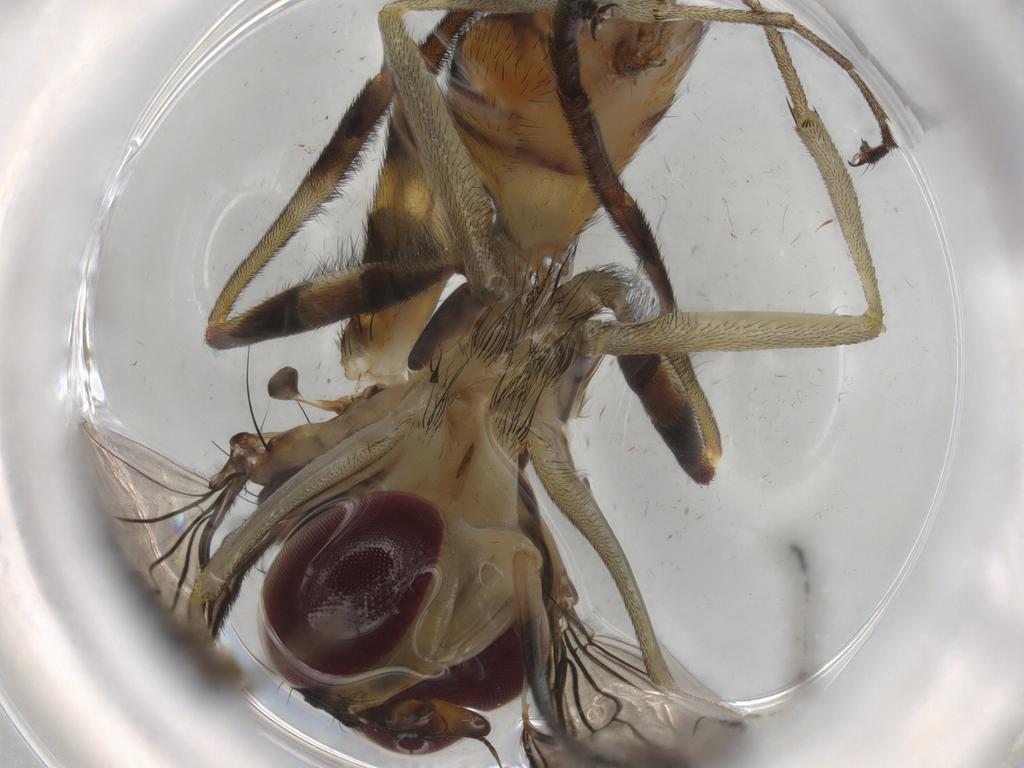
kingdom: Animalia
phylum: Arthropoda
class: Insecta
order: Diptera
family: Cecidomyiidae
